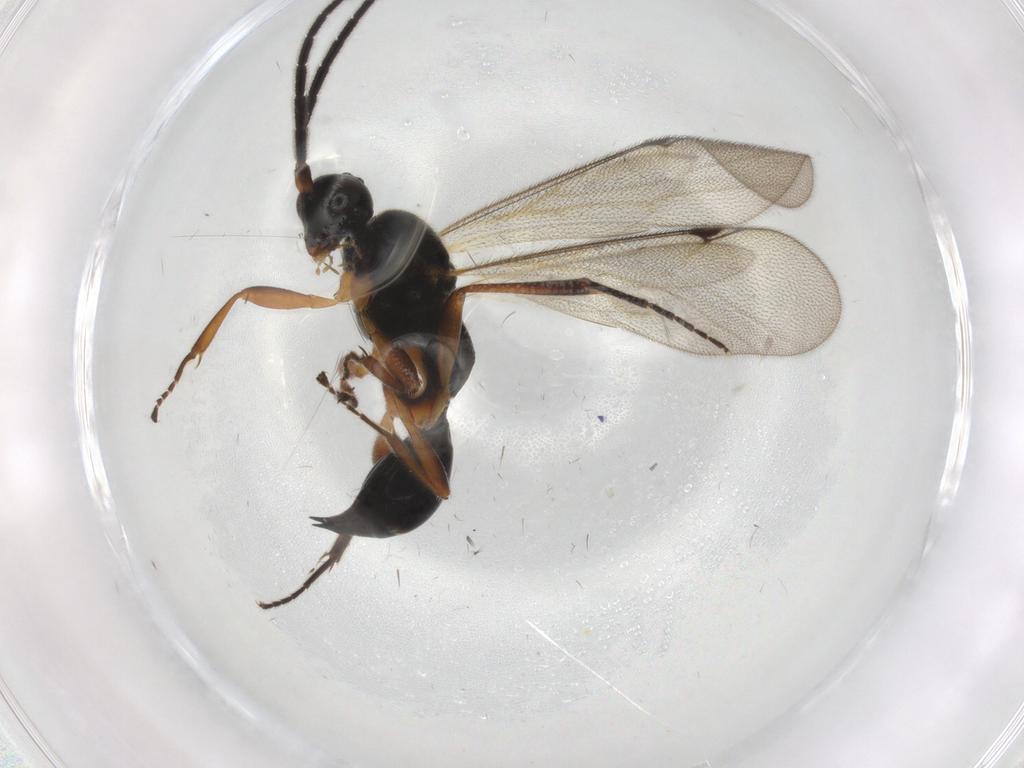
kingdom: Animalia
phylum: Arthropoda
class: Insecta
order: Hymenoptera
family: Proctotrupidae
